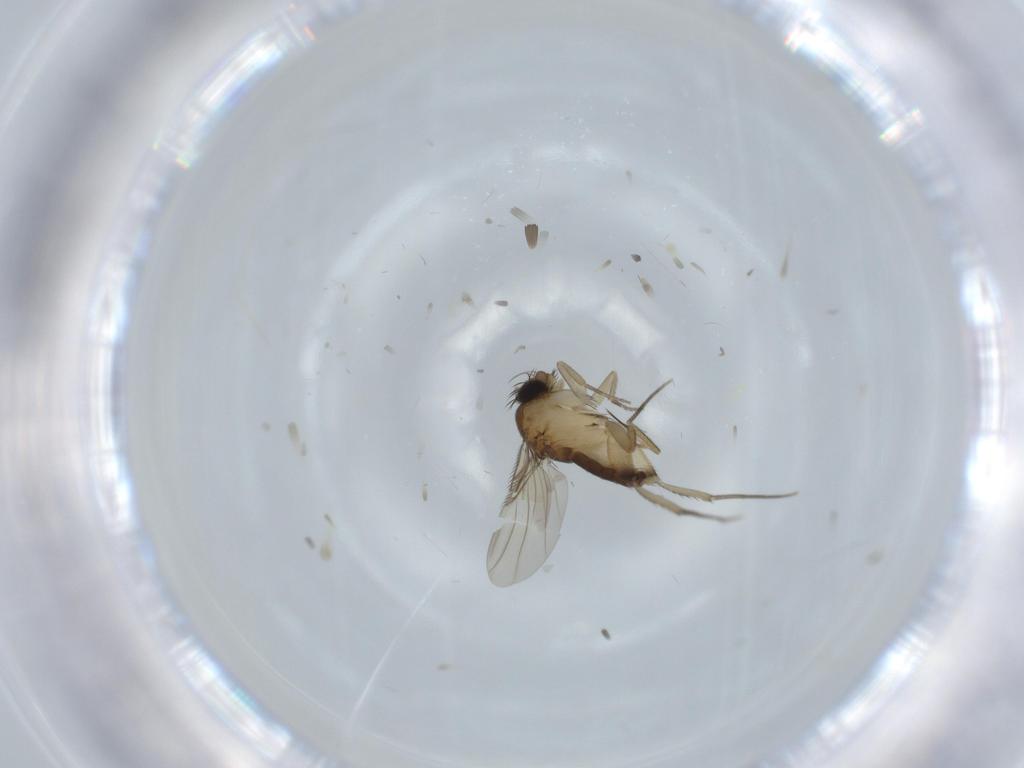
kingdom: Animalia
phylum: Arthropoda
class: Insecta
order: Diptera
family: Phoridae
